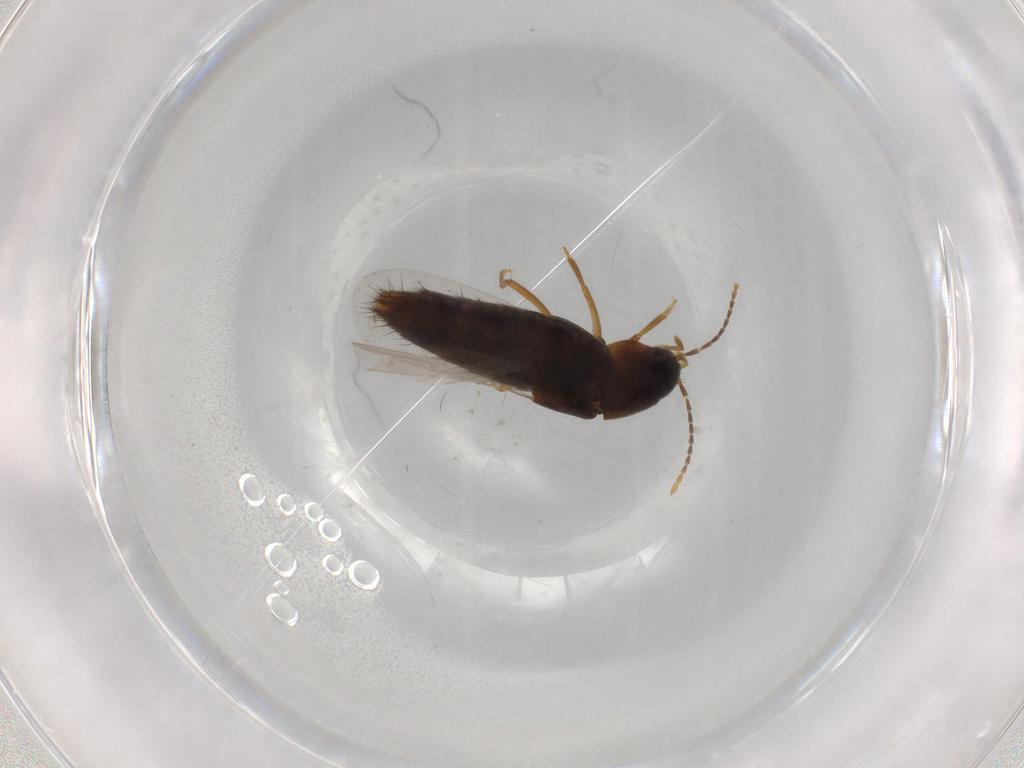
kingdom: Animalia
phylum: Arthropoda
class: Insecta
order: Coleoptera
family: Staphylinidae
